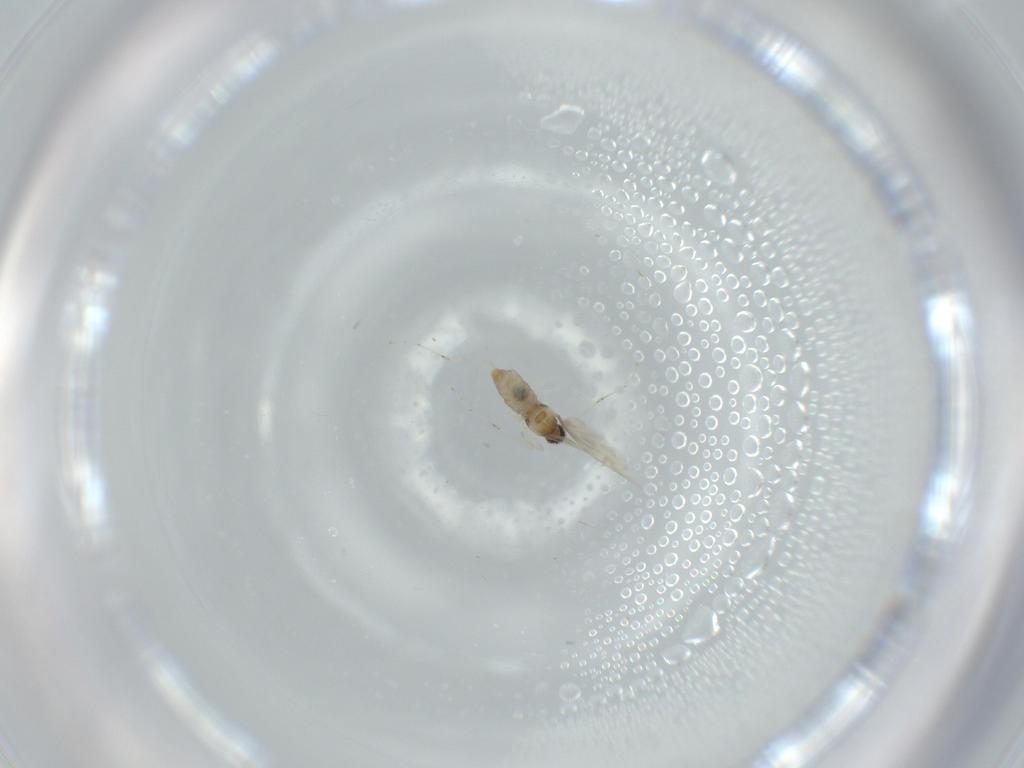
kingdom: Animalia
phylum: Arthropoda
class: Insecta
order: Diptera
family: Cecidomyiidae
